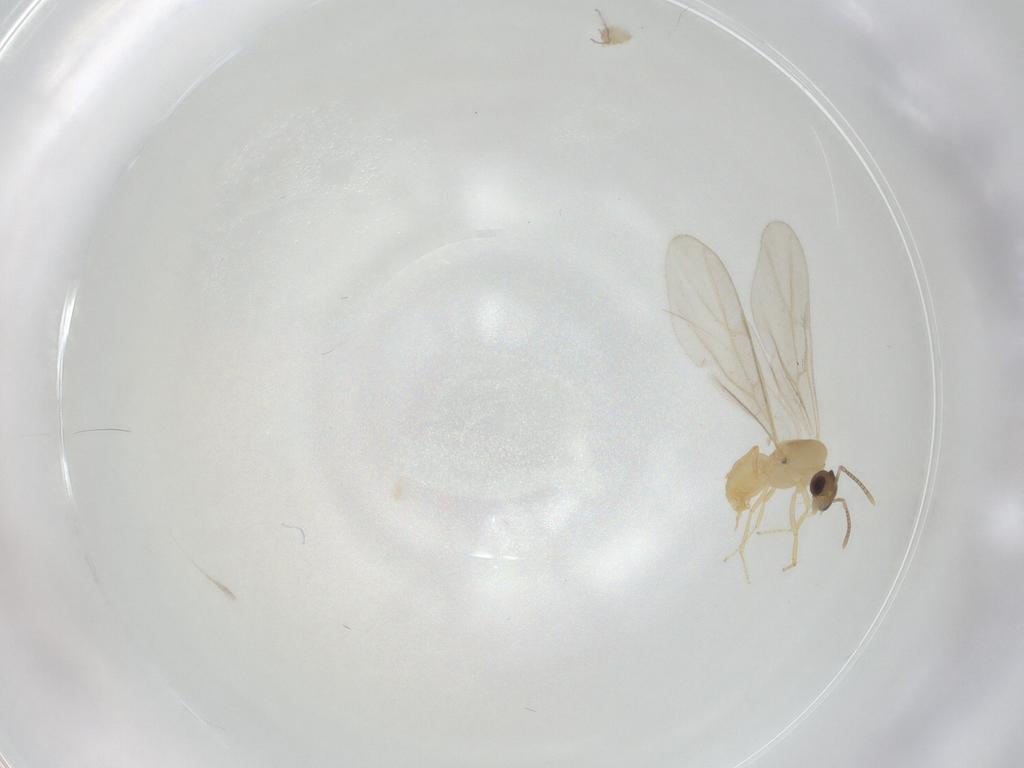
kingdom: Animalia
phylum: Arthropoda
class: Insecta
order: Hymenoptera
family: Formicidae
